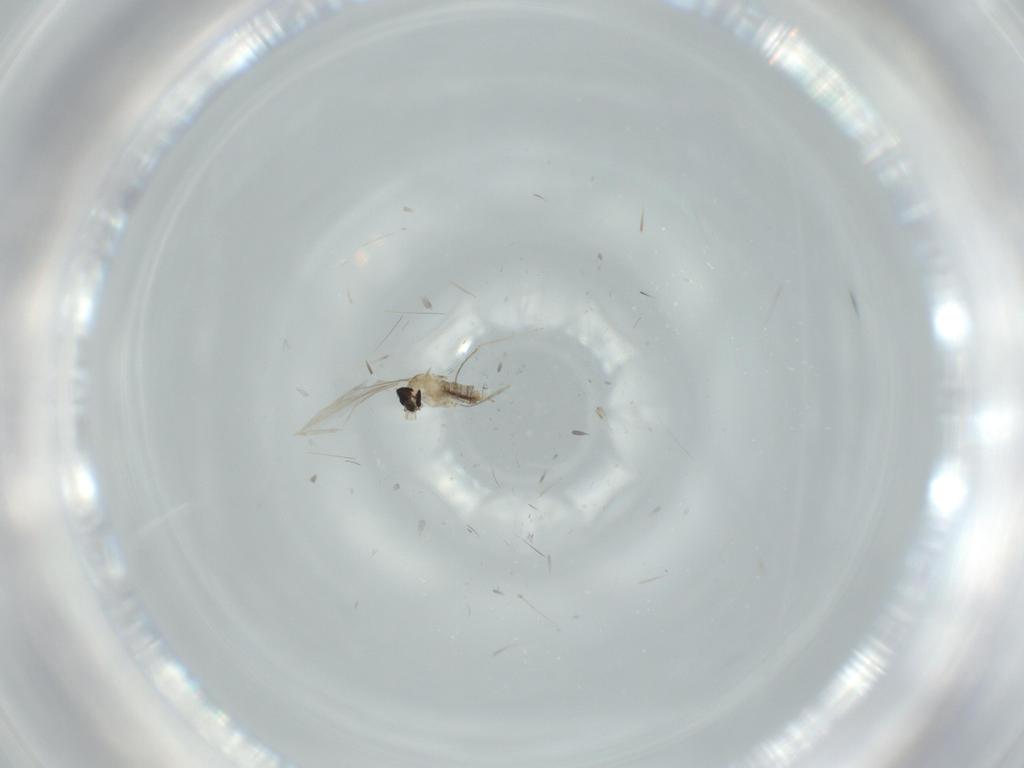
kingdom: Animalia
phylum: Arthropoda
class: Insecta
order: Diptera
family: Cecidomyiidae
